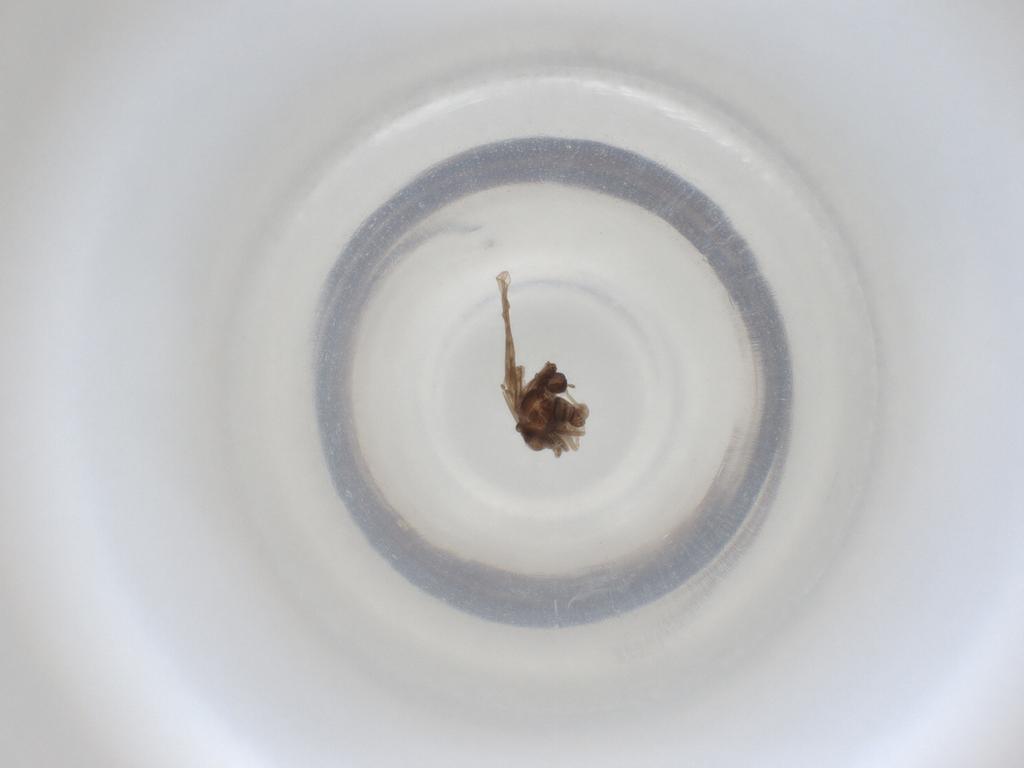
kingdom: Animalia
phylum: Arthropoda
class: Insecta
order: Diptera
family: Cecidomyiidae
